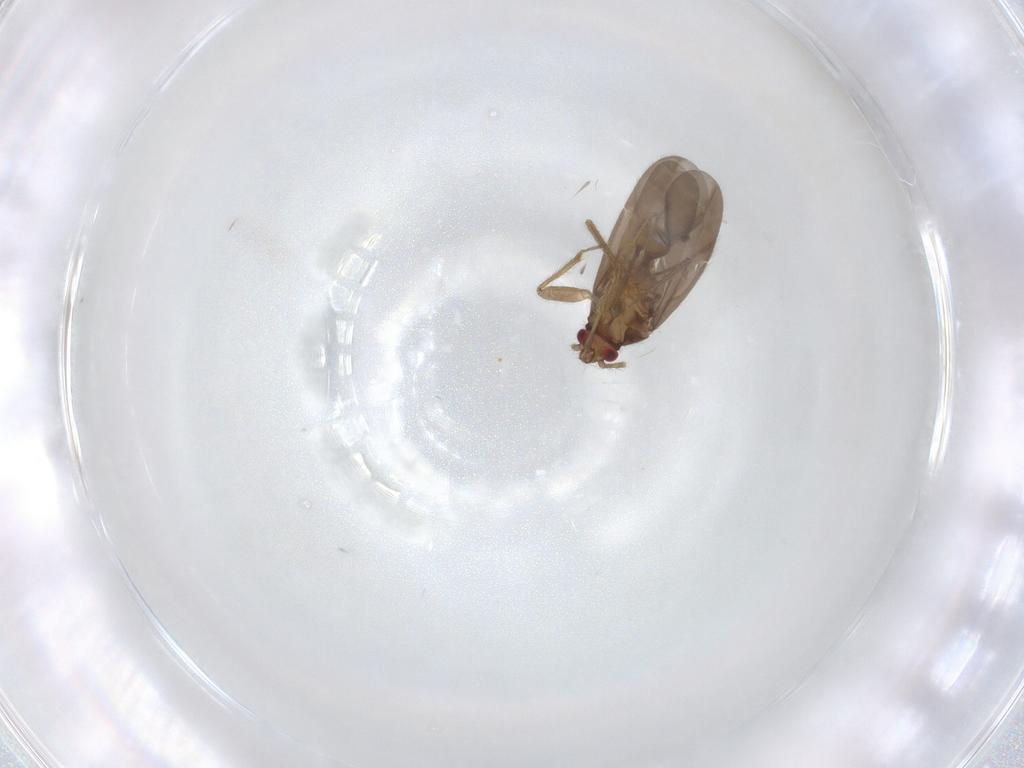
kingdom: Animalia
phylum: Arthropoda
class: Insecta
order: Hemiptera
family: Ceratocombidae
